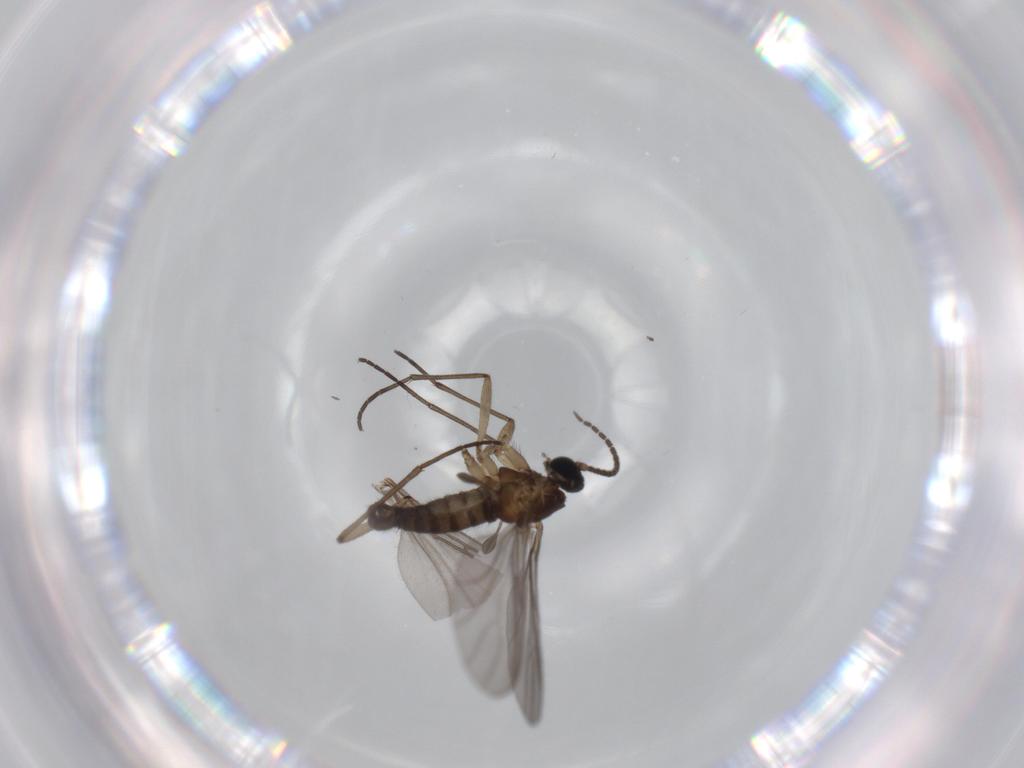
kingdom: Animalia
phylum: Arthropoda
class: Insecta
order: Diptera
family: Sciaridae
